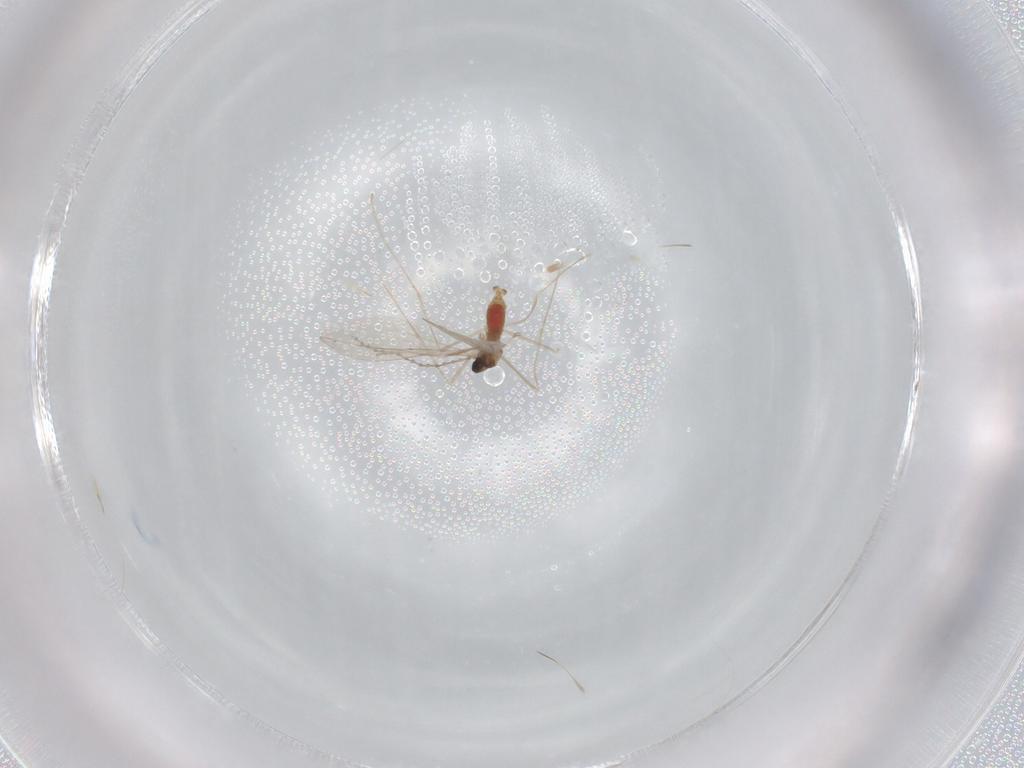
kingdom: Animalia
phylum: Arthropoda
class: Insecta
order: Diptera
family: Cecidomyiidae
